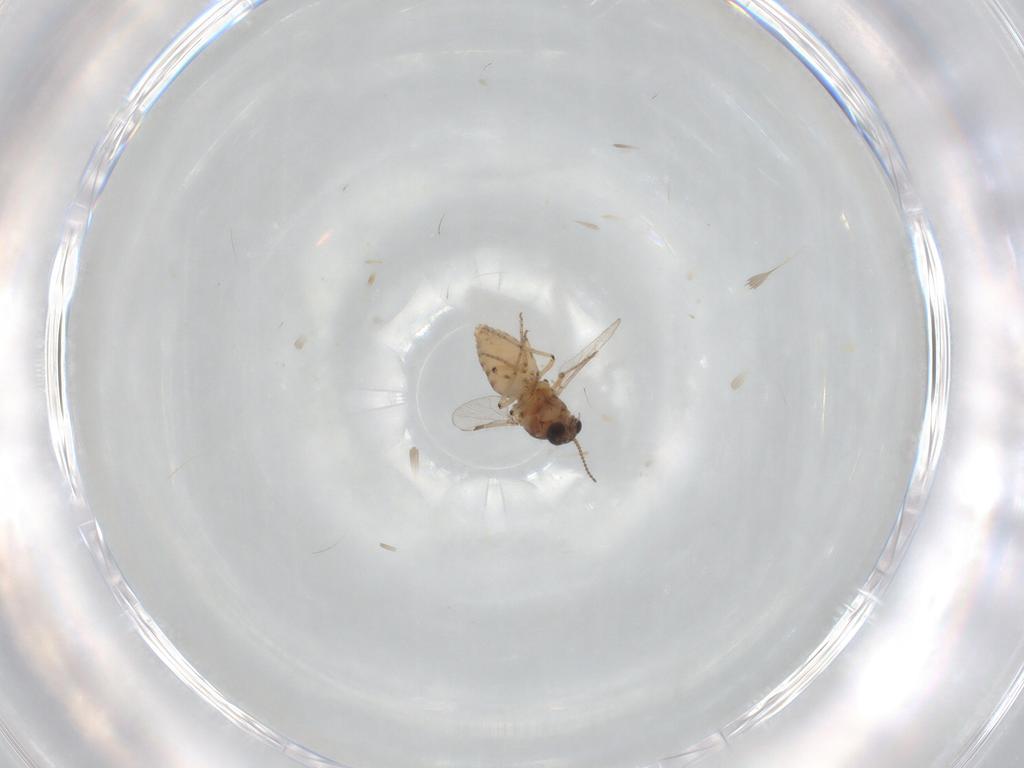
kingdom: Animalia
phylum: Arthropoda
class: Insecta
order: Diptera
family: Ceratopogonidae
